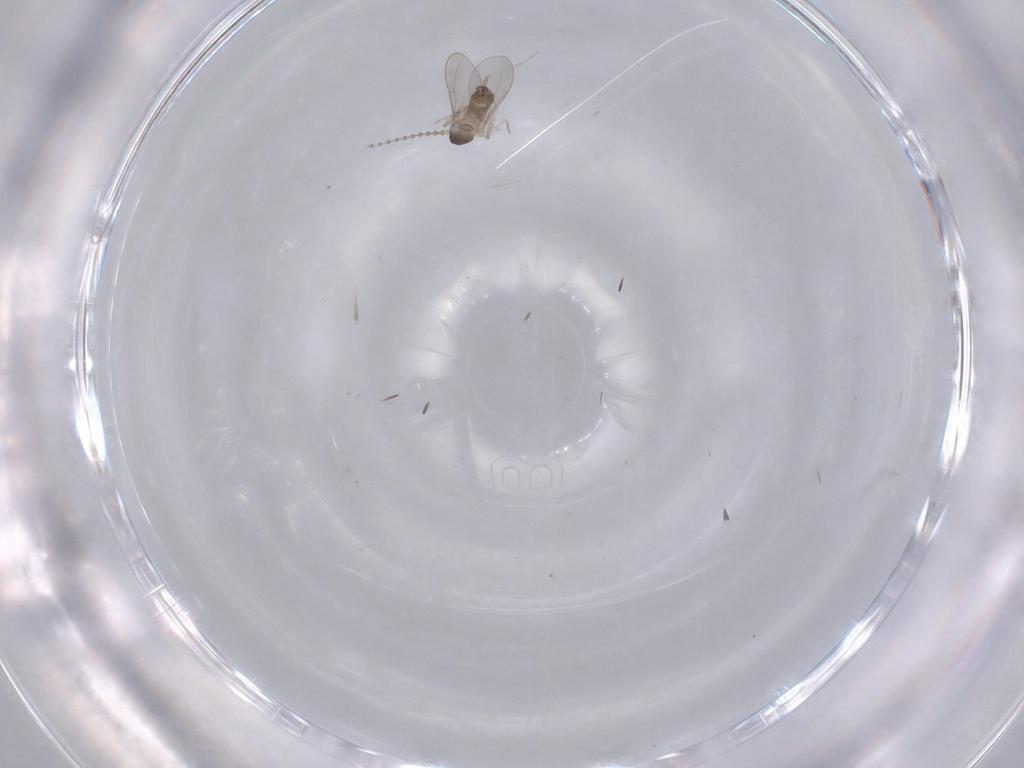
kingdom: Animalia
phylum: Arthropoda
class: Insecta
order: Diptera
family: Cecidomyiidae
